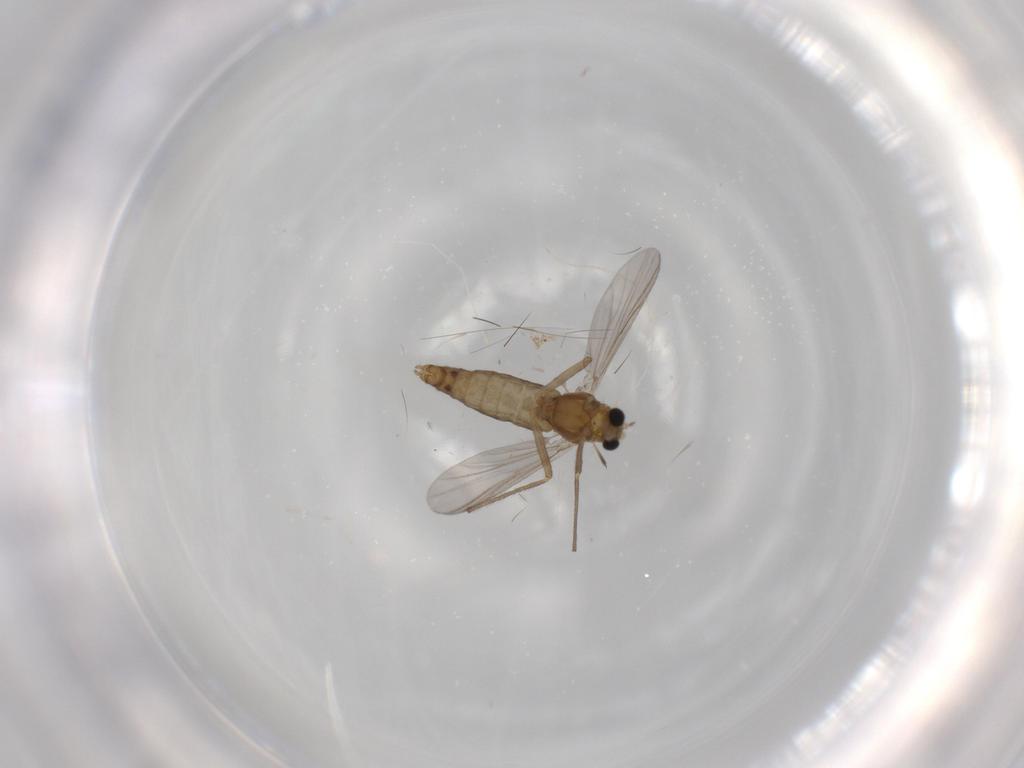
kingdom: Animalia
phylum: Arthropoda
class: Insecta
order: Diptera
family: Chironomidae
